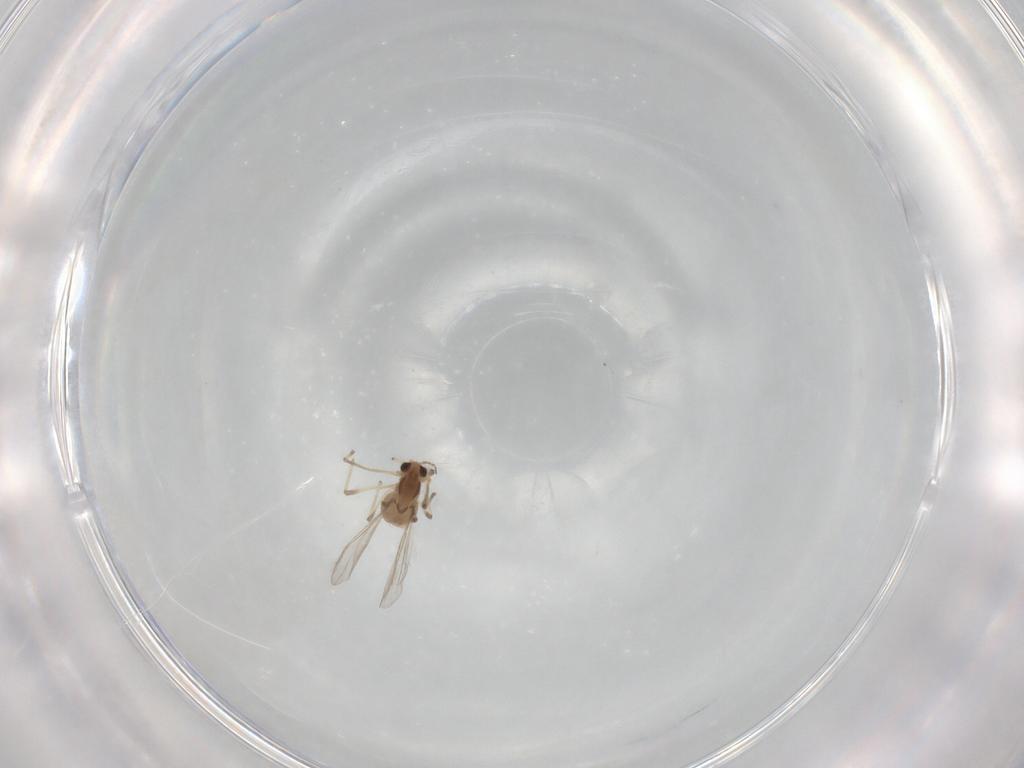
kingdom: Animalia
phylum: Arthropoda
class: Insecta
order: Diptera
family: Chironomidae
